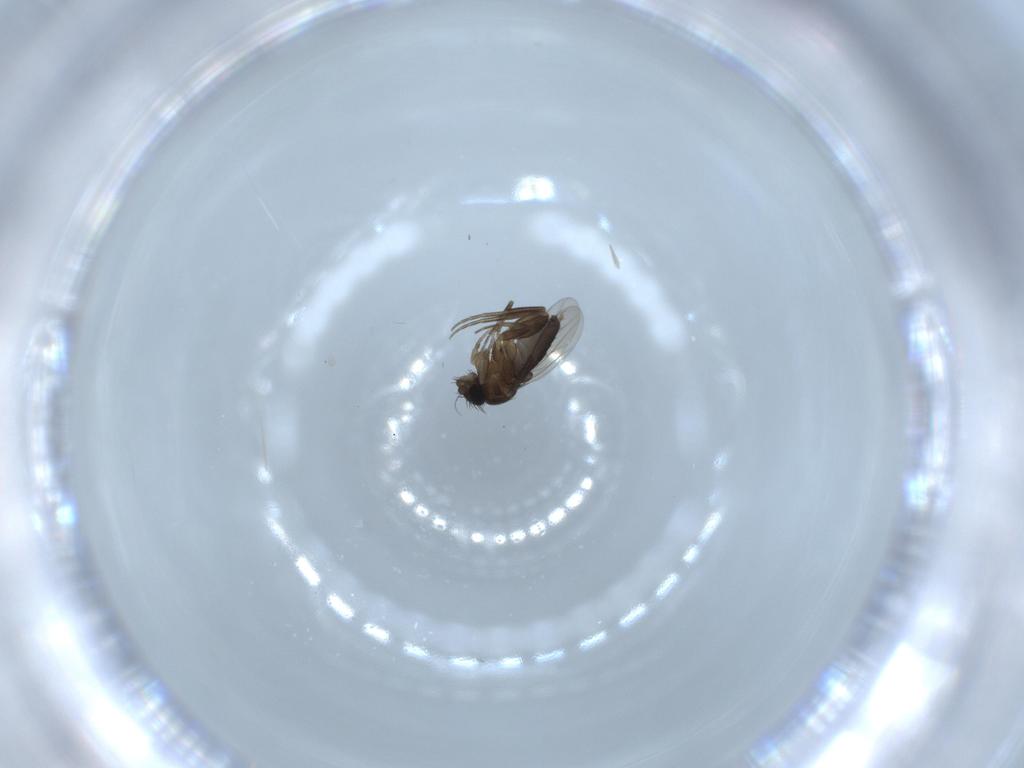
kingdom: Animalia
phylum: Arthropoda
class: Insecta
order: Diptera
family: Phoridae
